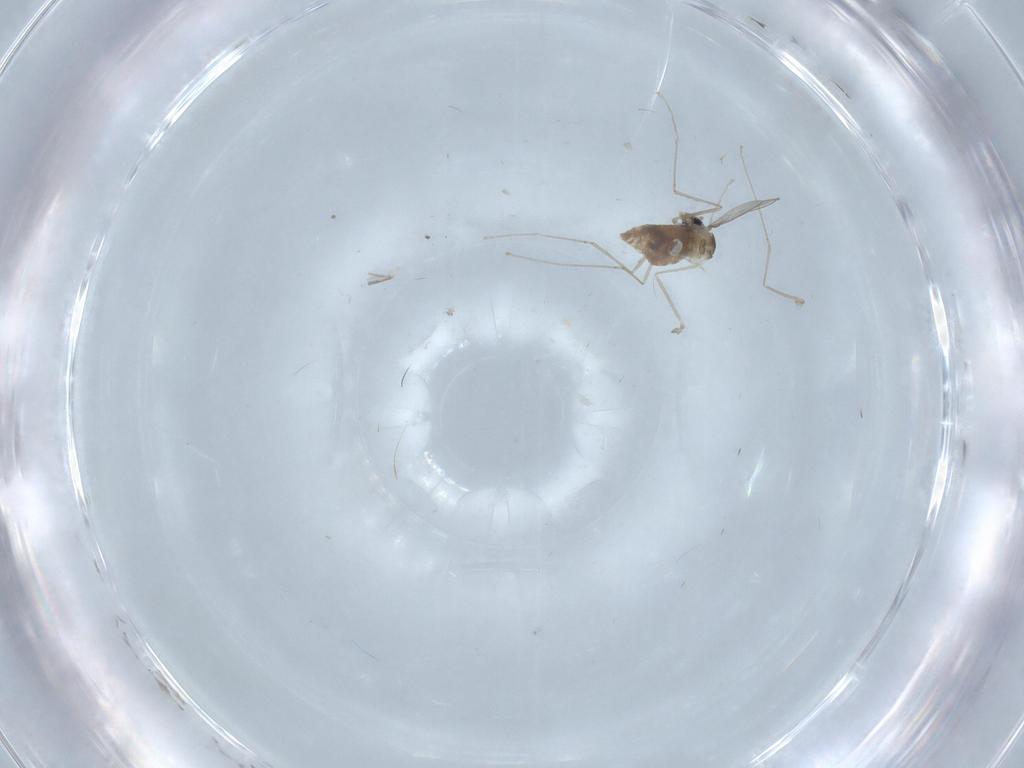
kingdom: Animalia
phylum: Arthropoda
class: Insecta
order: Diptera
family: Cecidomyiidae
